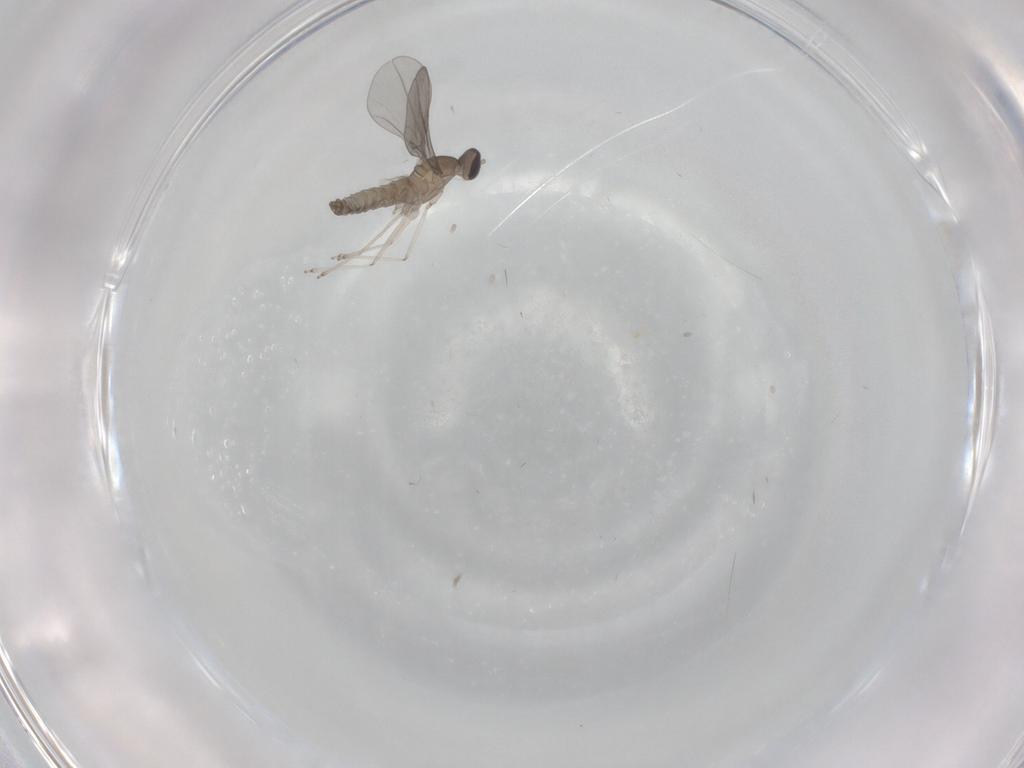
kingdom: Animalia
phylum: Arthropoda
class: Insecta
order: Diptera
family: Cecidomyiidae
